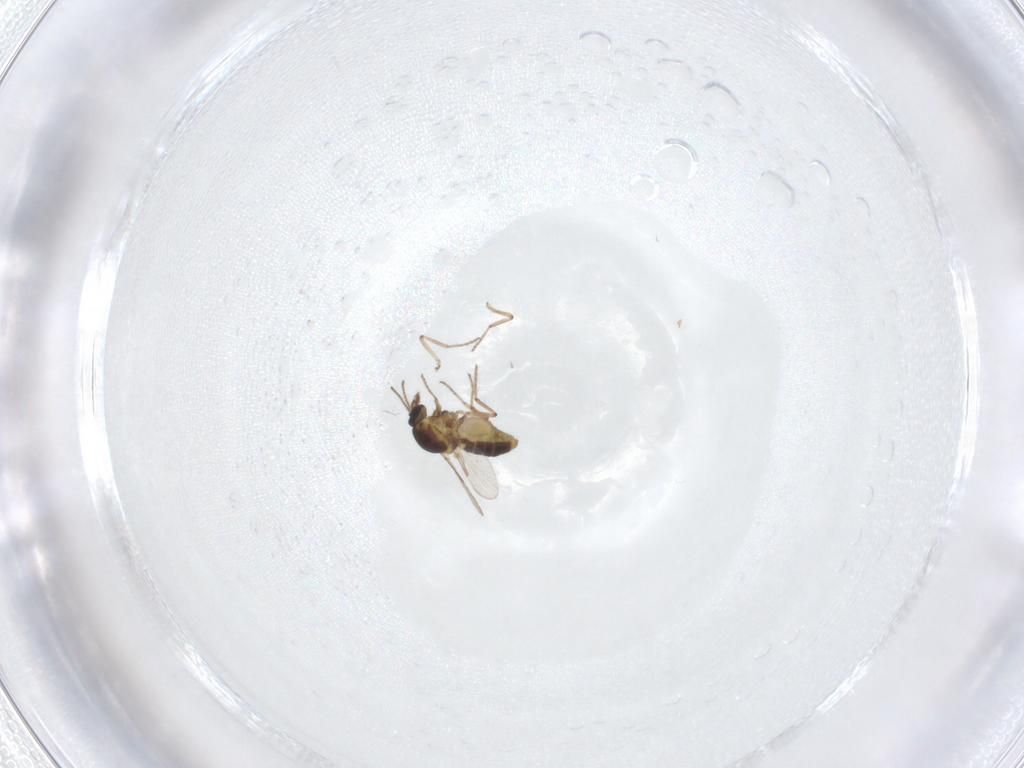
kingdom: Animalia
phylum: Arthropoda
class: Insecta
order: Diptera
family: Ceratopogonidae
